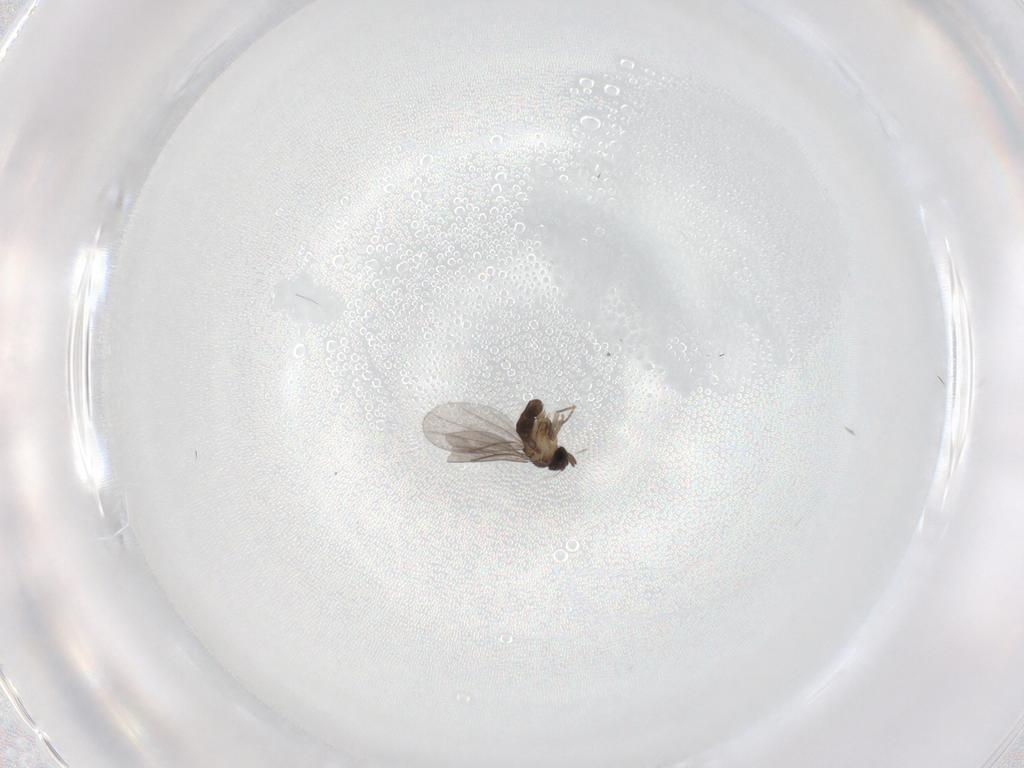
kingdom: Animalia
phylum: Arthropoda
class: Insecta
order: Diptera
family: Cecidomyiidae
